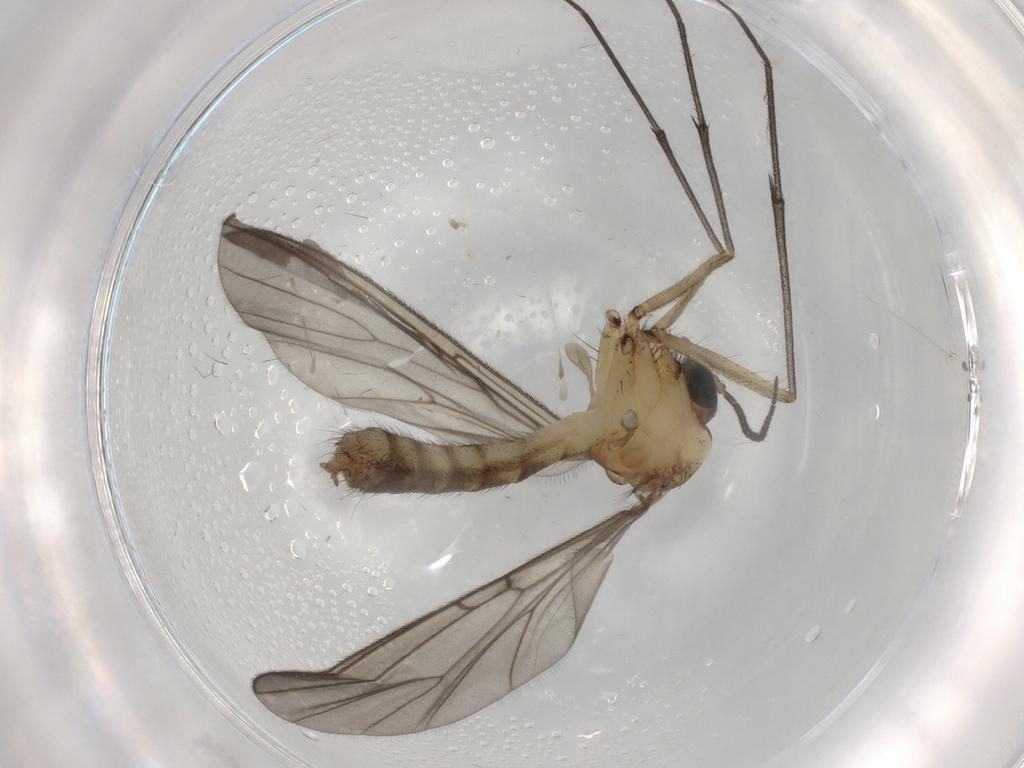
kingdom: Animalia
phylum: Arthropoda
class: Insecta
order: Diptera
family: Mycetophilidae
